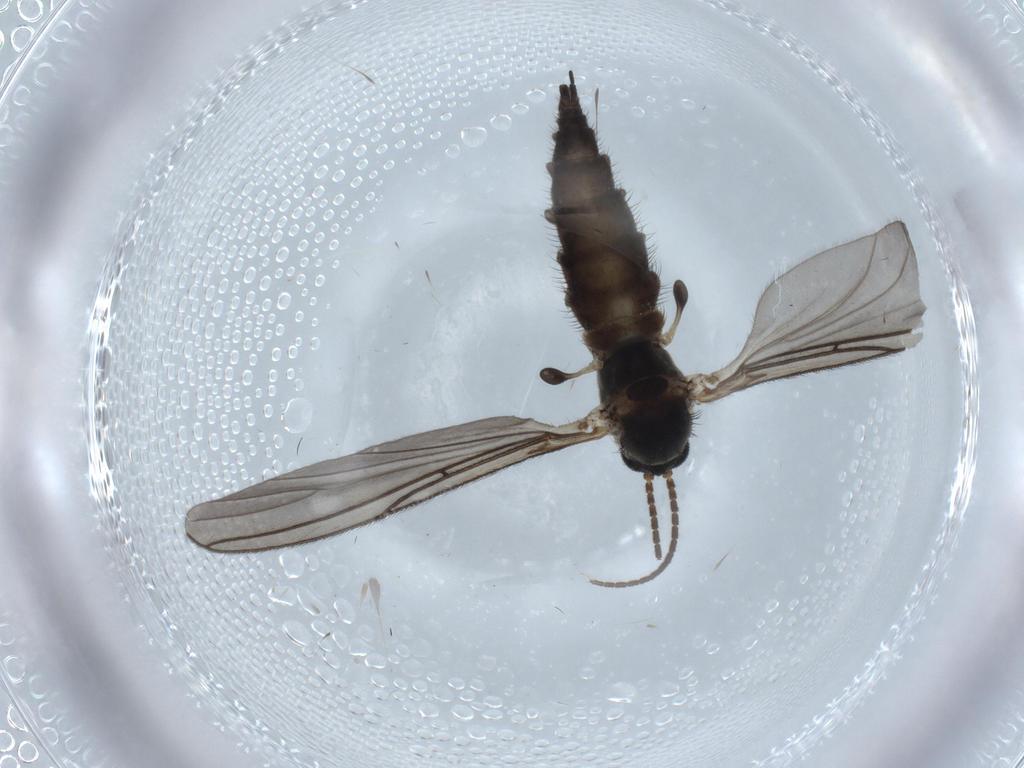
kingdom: Animalia
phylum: Arthropoda
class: Insecta
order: Diptera
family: Sciaridae
